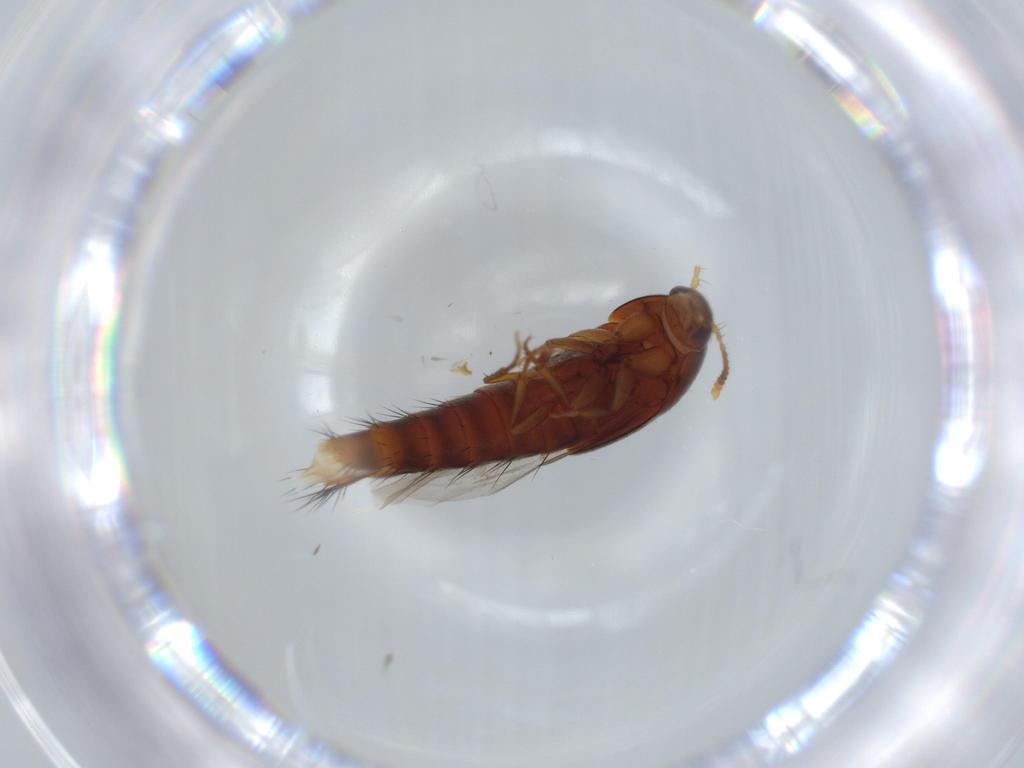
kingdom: Animalia
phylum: Arthropoda
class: Insecta
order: Coleoptera
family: Staphylinidae
